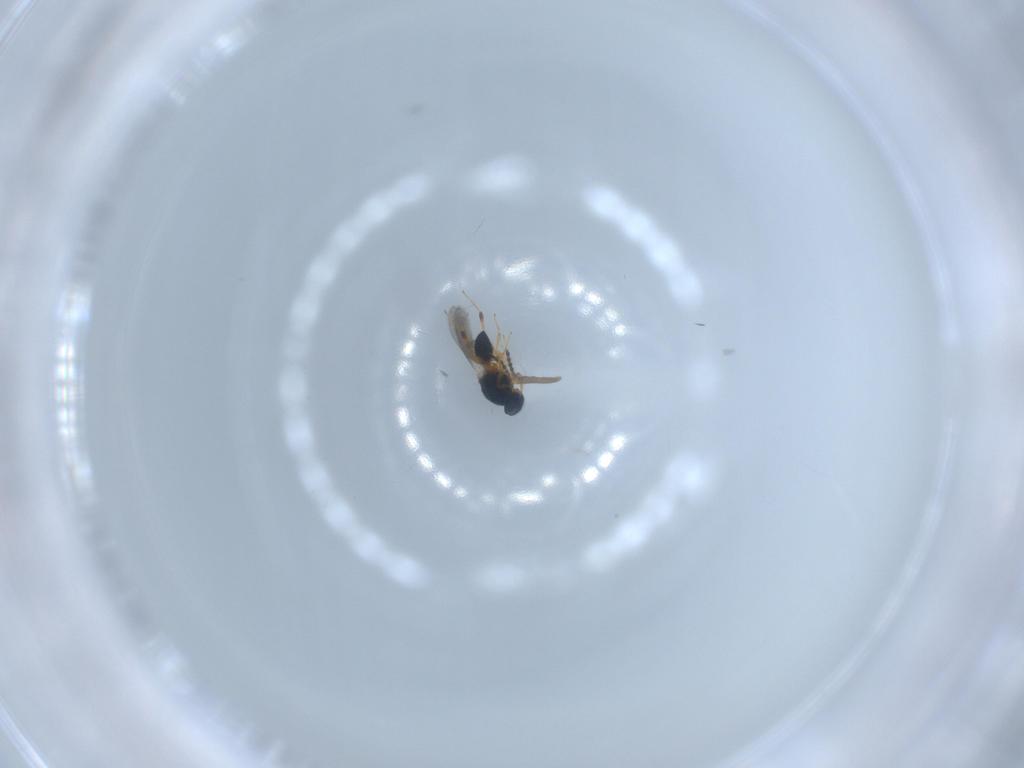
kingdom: Animalia
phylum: Arthropoda
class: Insecta
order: Hymenoptera
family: Platygastridae
